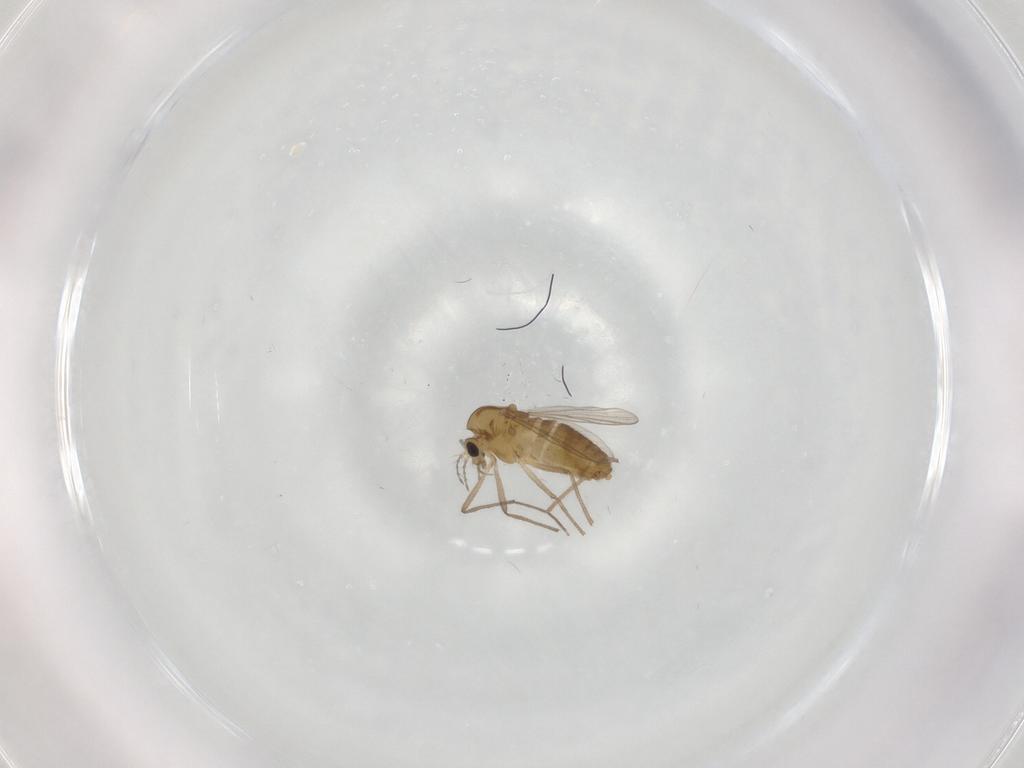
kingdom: Animalia
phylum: Arthropoda
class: Insecta
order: Diptera
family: Chironomidae
